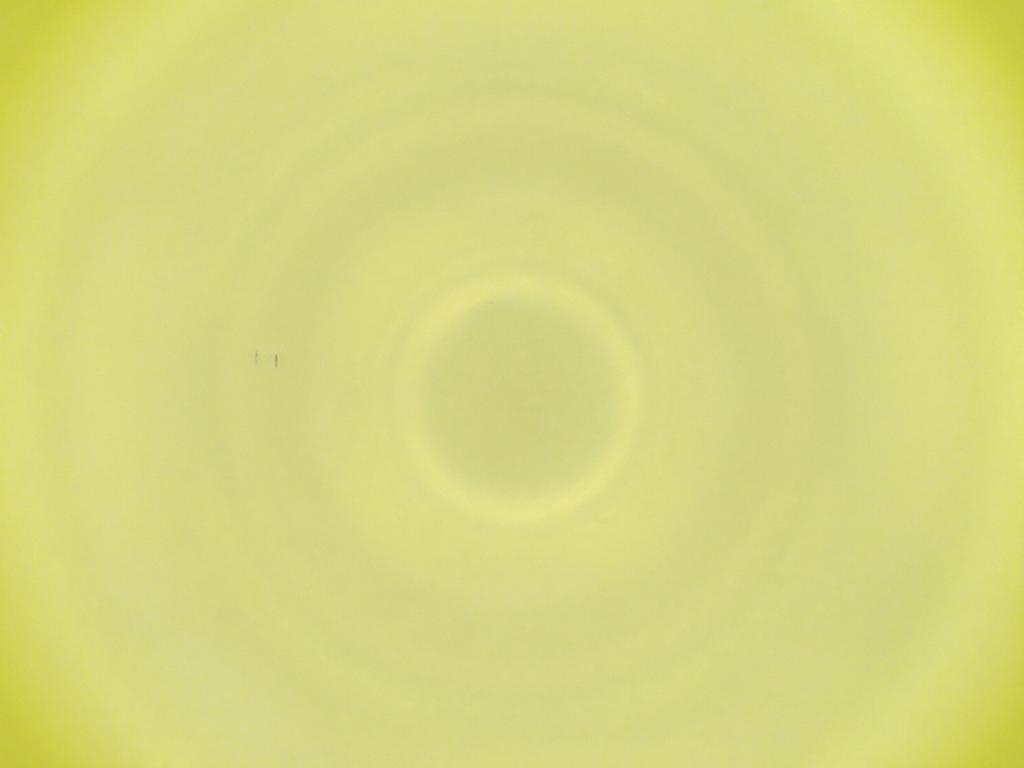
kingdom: Animalia
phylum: Arthropoda
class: Insecta
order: Diptera
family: Cecidomyiidae
